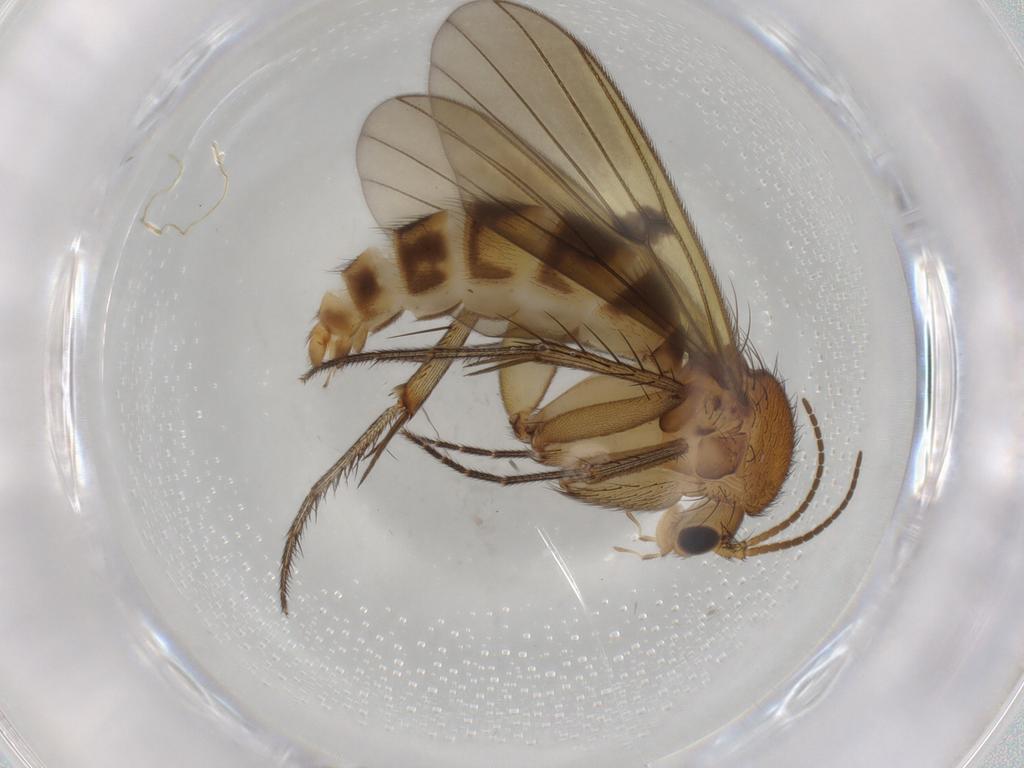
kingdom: Animalia
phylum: Arthropoda
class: Insecta
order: Diptera
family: Phoridae
